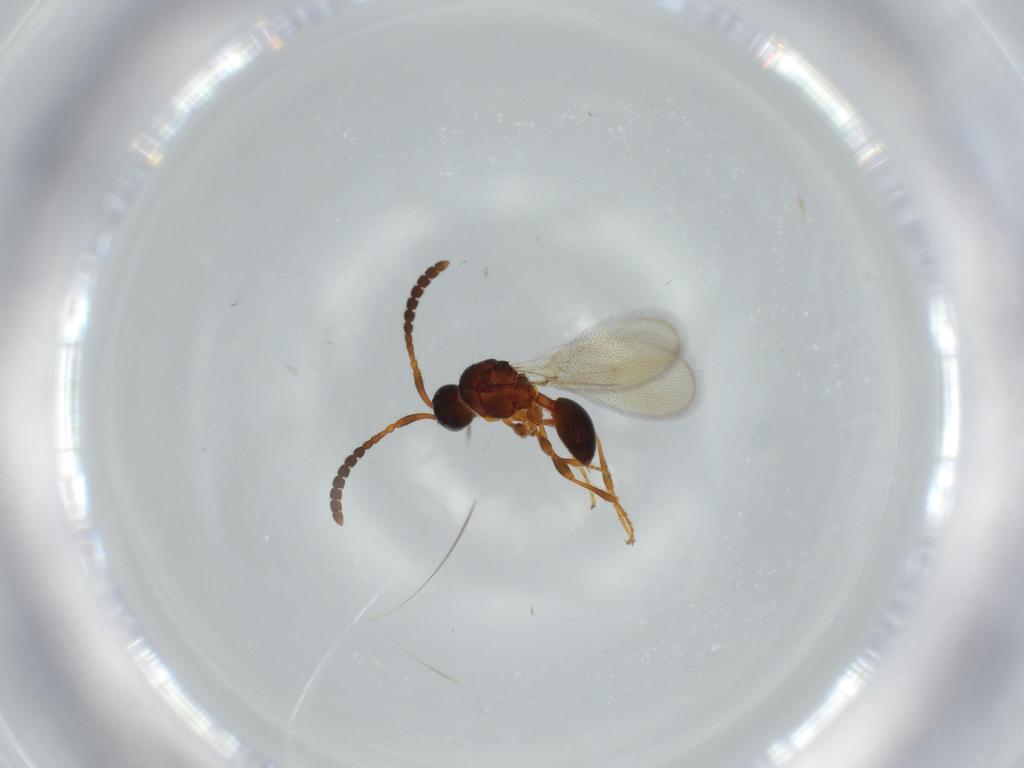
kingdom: Animalia
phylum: Arthropoda
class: Insecta
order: Hymenoptera
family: Diapriidae
